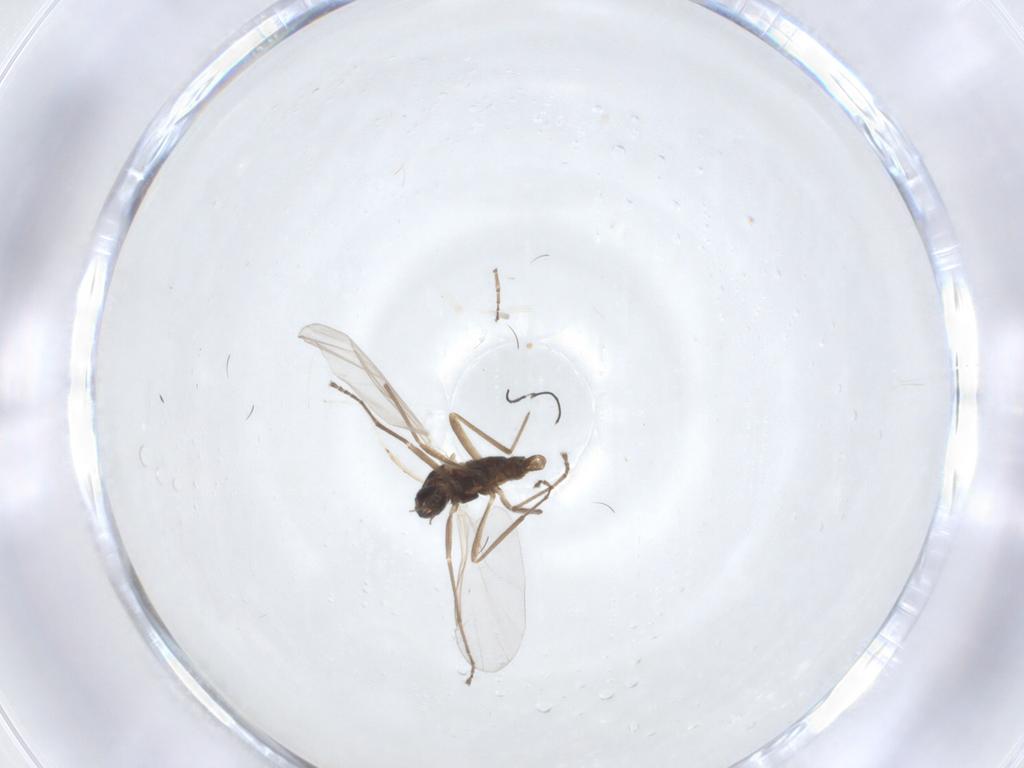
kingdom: Animalia
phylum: Arthropoda
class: Insecta
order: Diptera
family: Cecidomyiidae
